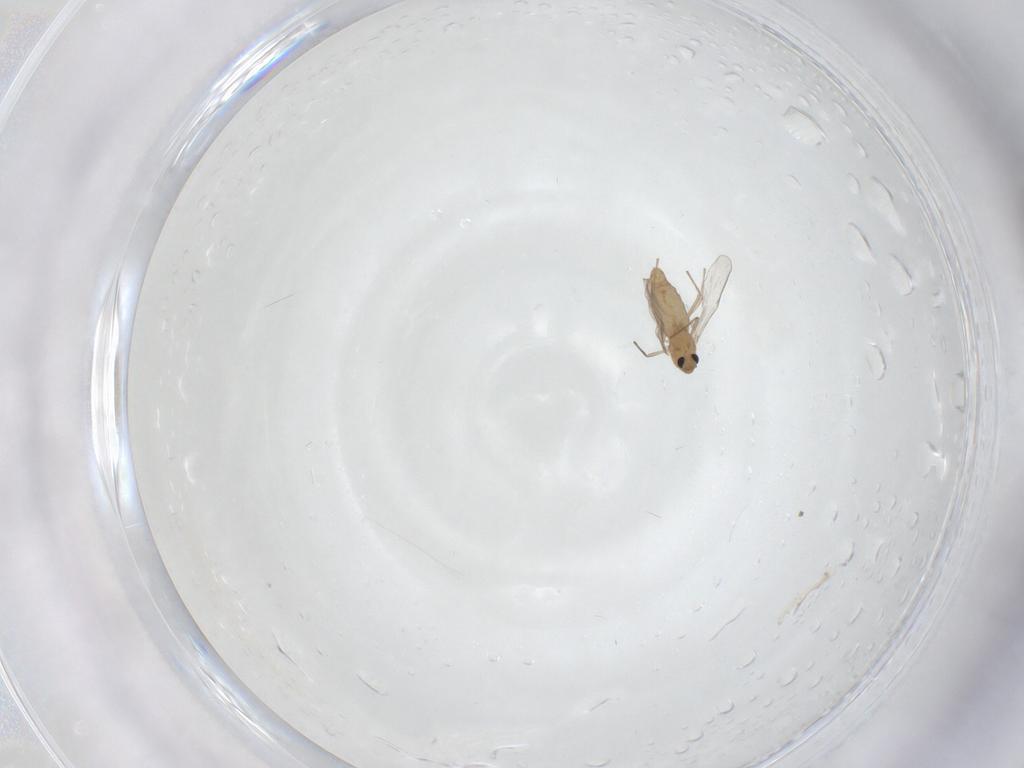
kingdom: Animalia
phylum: Arthropoda
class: Insecta
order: Diptera
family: Chironomidae
